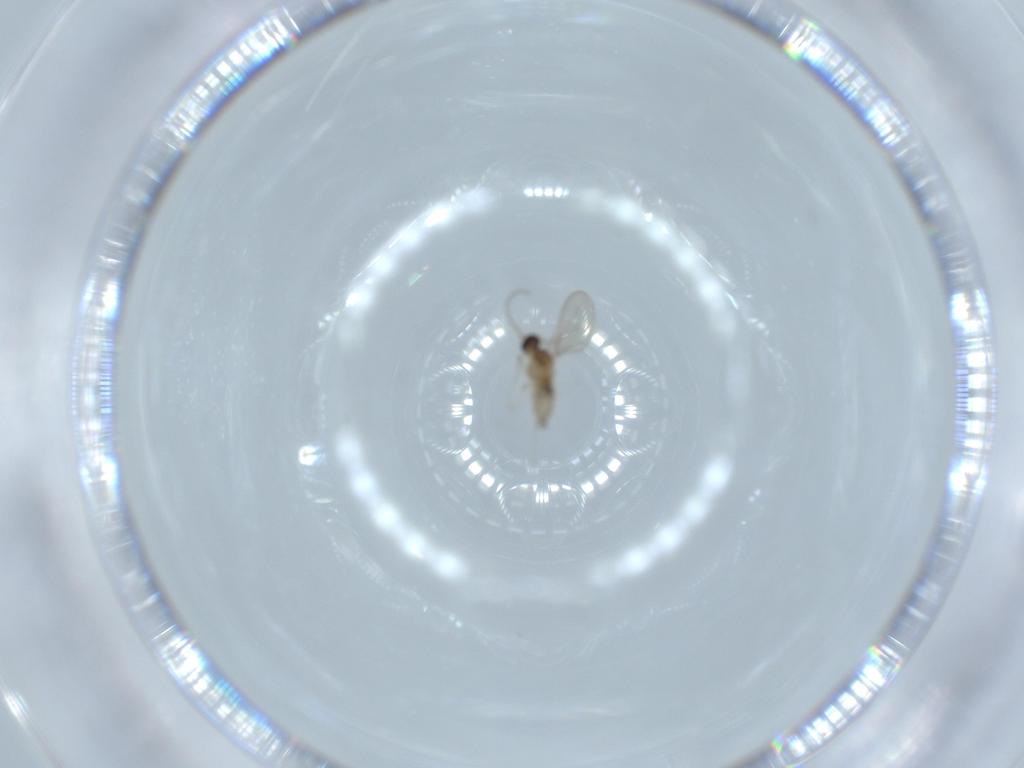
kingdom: Animalia
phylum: Arthropoda
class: Insecta
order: Diptera
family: Cecidomyiidae
